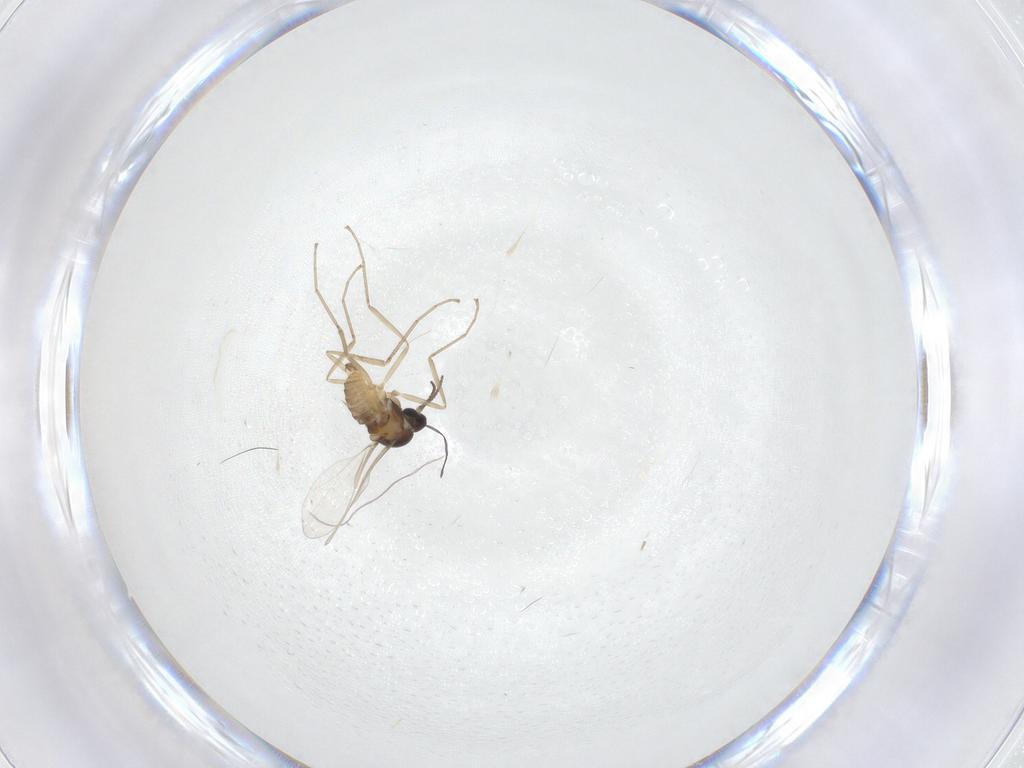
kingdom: Animalia
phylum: Arthropoda
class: Insecta
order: Diptera
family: Cecidomyiidae
